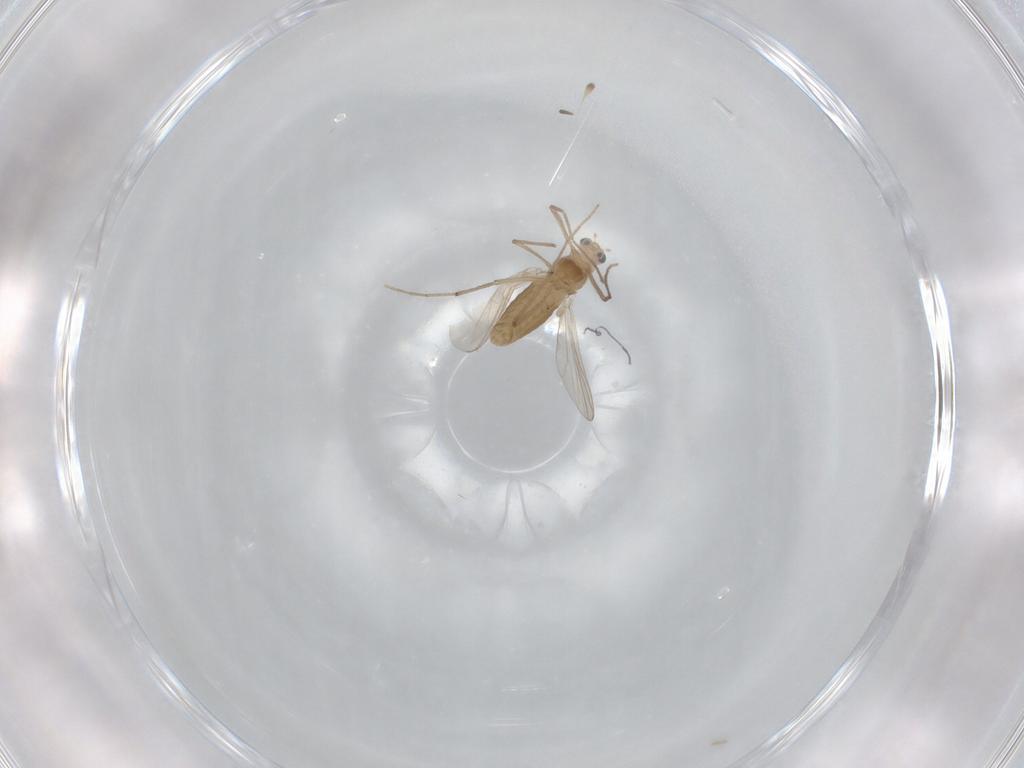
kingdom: Animalia
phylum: Arthropoda
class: Insecta
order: Diptera
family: Chironomidae
